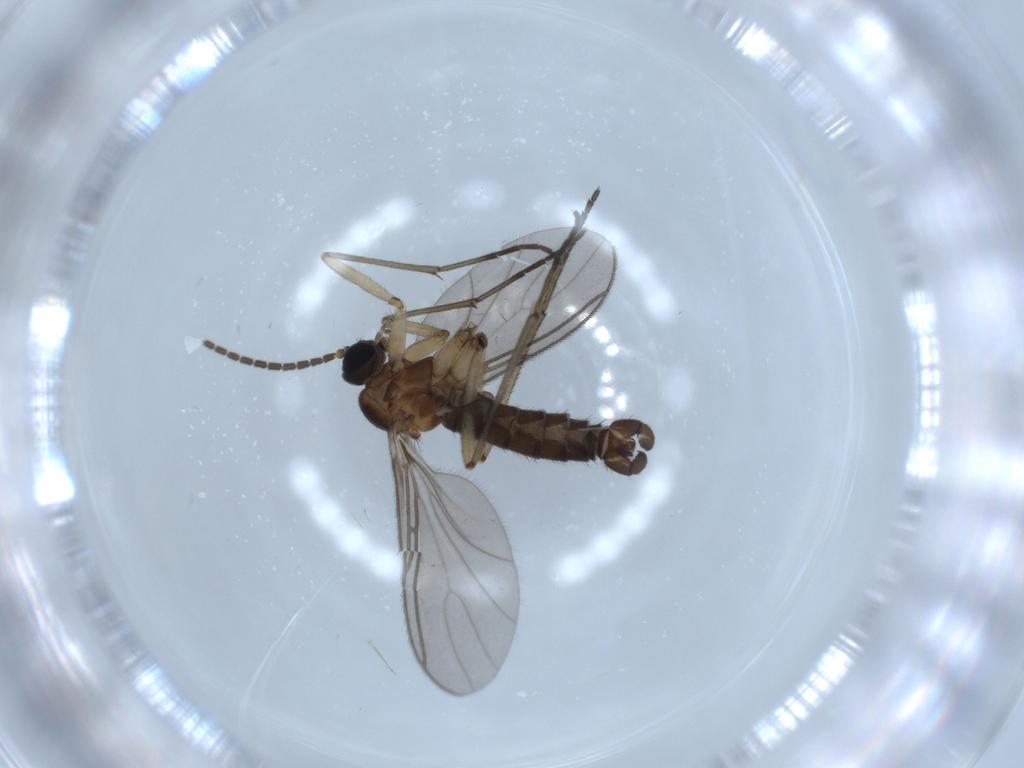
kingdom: Animalia
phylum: Arthropoda
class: Insecta
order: Diptera
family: Sciaridae
